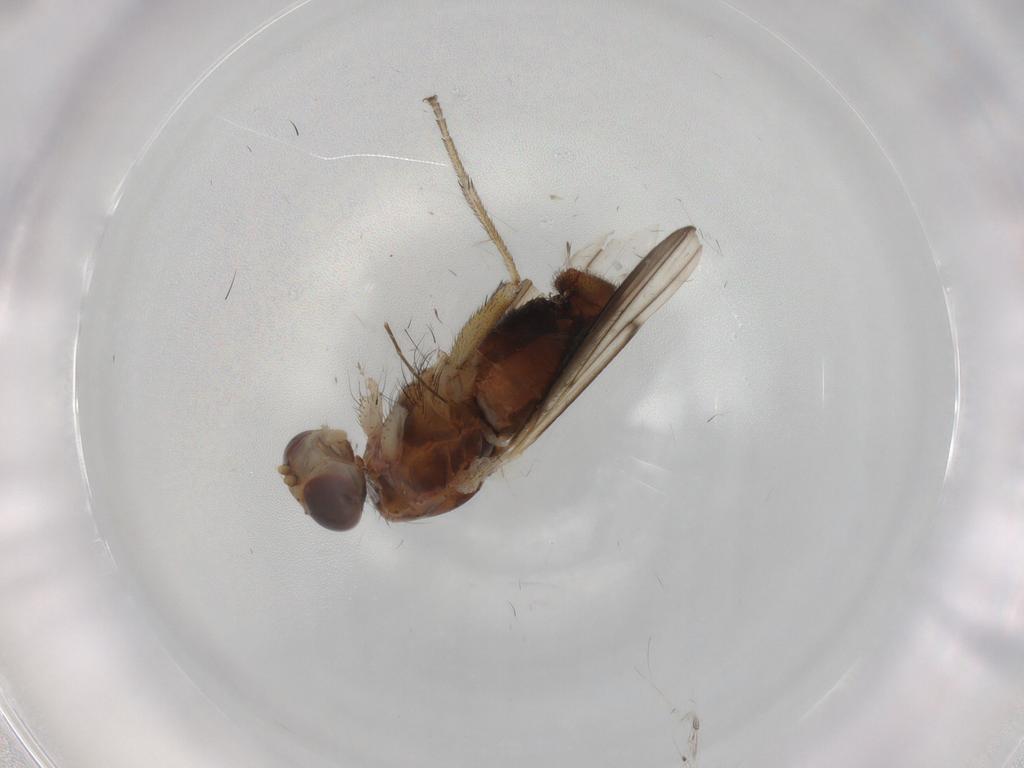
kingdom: Animalia
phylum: Arthropoda
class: Insecta
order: Diptera
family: Heleomyzidae
